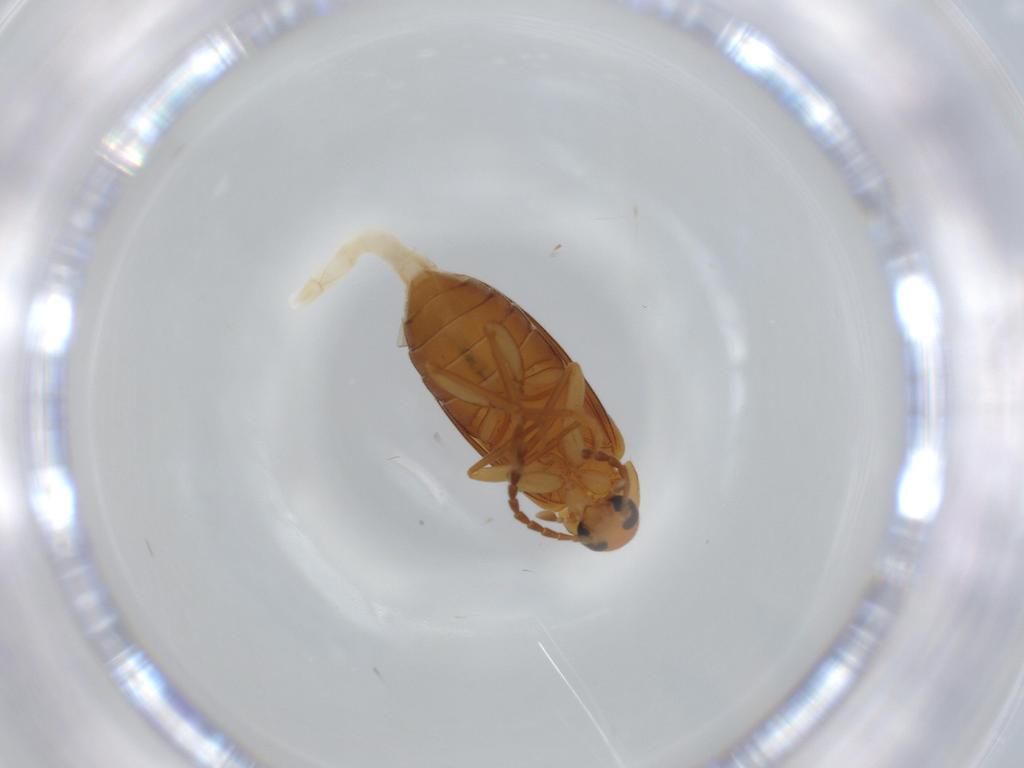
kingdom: Animalia
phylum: Arthropoda
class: Insecta
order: Coleoptera
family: Scraptiidae
